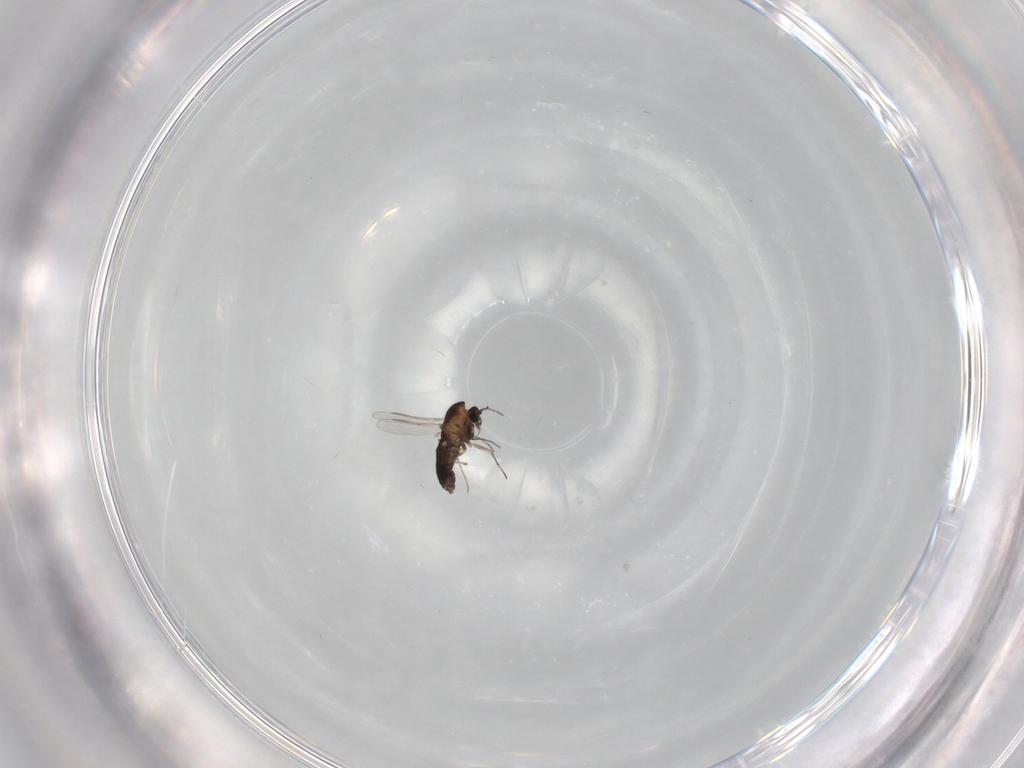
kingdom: Animalia
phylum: Arthropoda
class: Insecta
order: Diptera
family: Chironomidae
